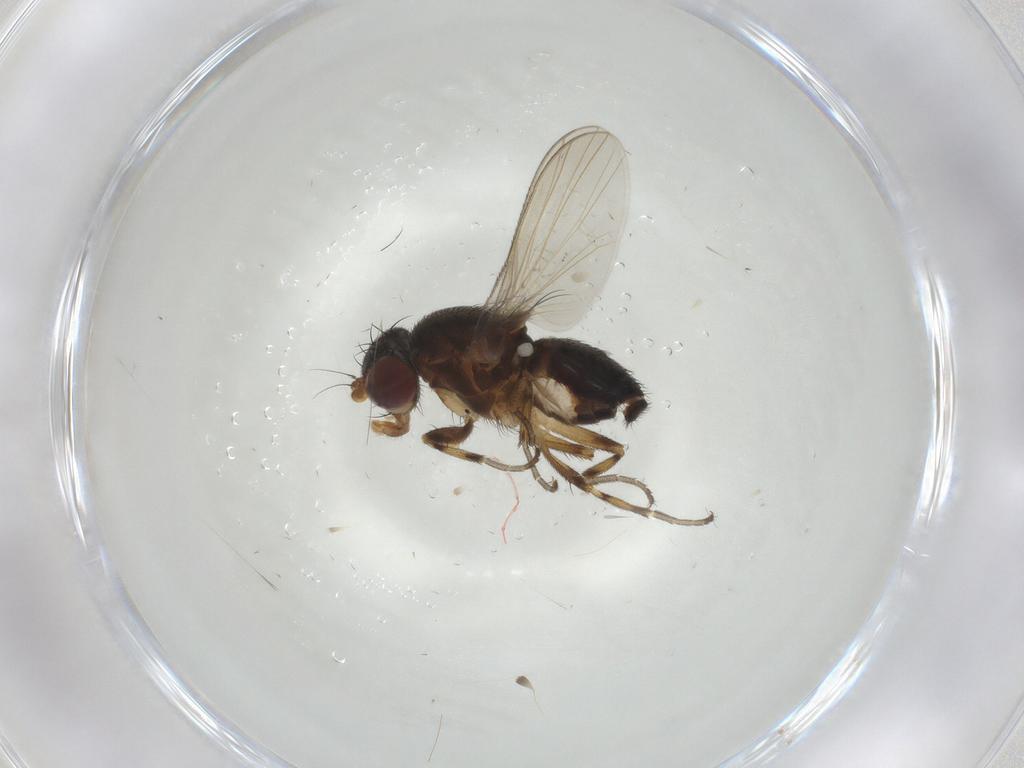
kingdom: Animalia
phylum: Arthropoda
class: Insecta
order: Diptera
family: Heleomyzidae
